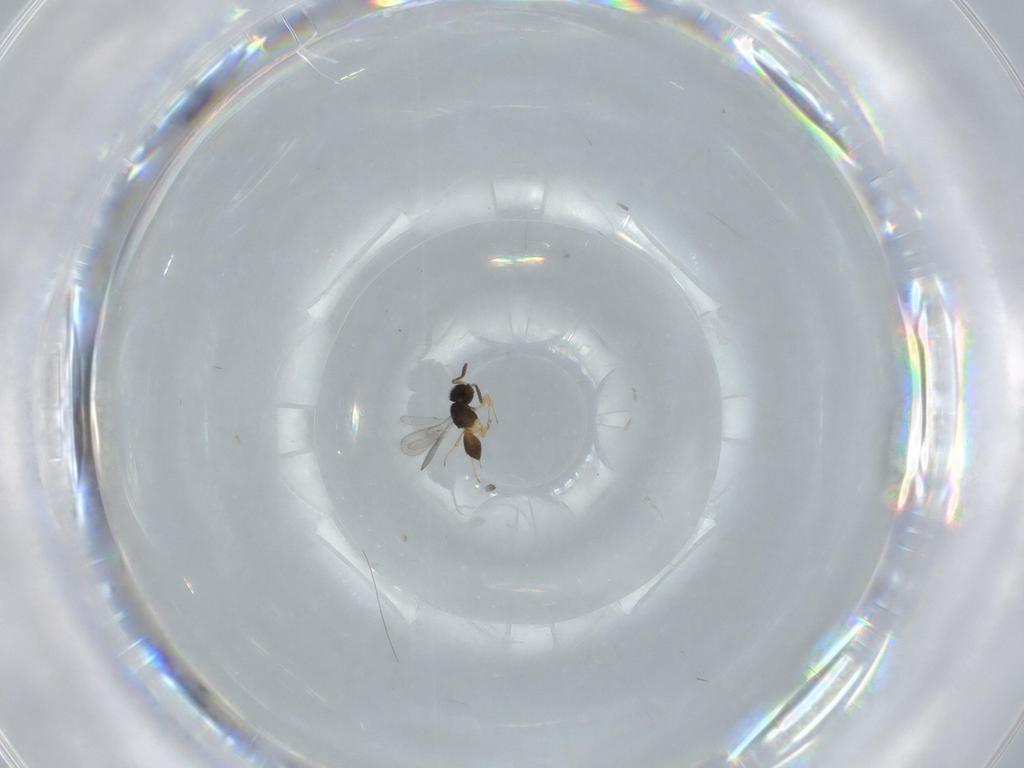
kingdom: Animalia
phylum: Arthropoda
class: Insecta
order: Hymenoptera
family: Scelionidae
